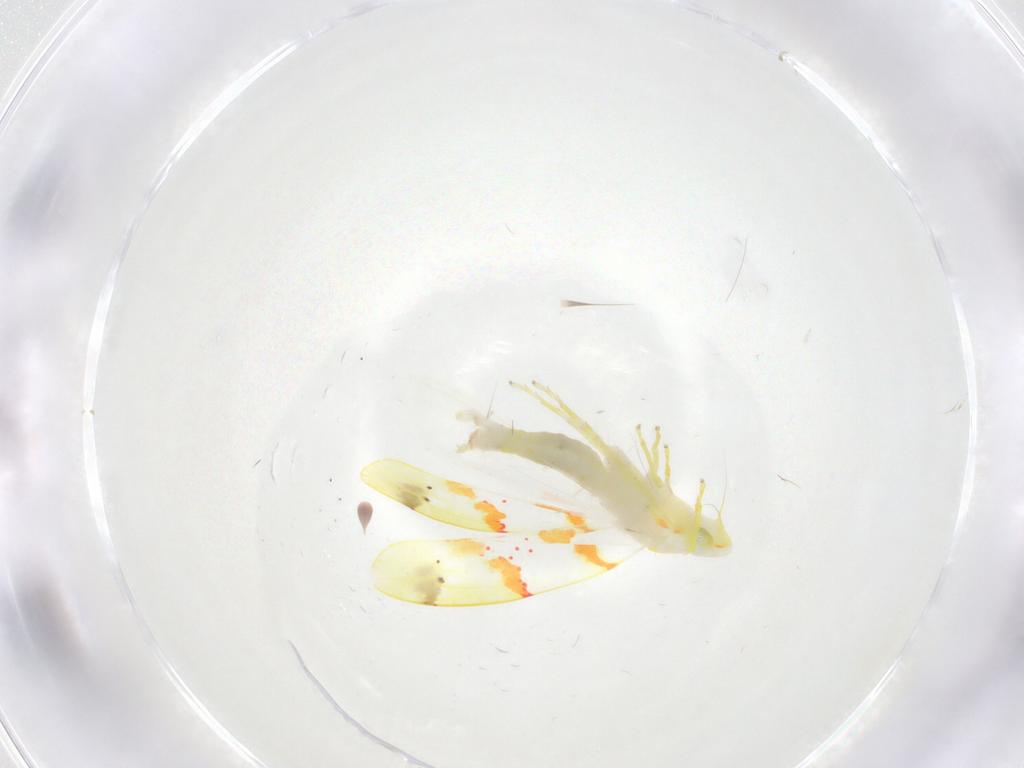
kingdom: Animalia
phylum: Arthropoda
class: Insecta
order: Hemiptera
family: Cicadellidae
